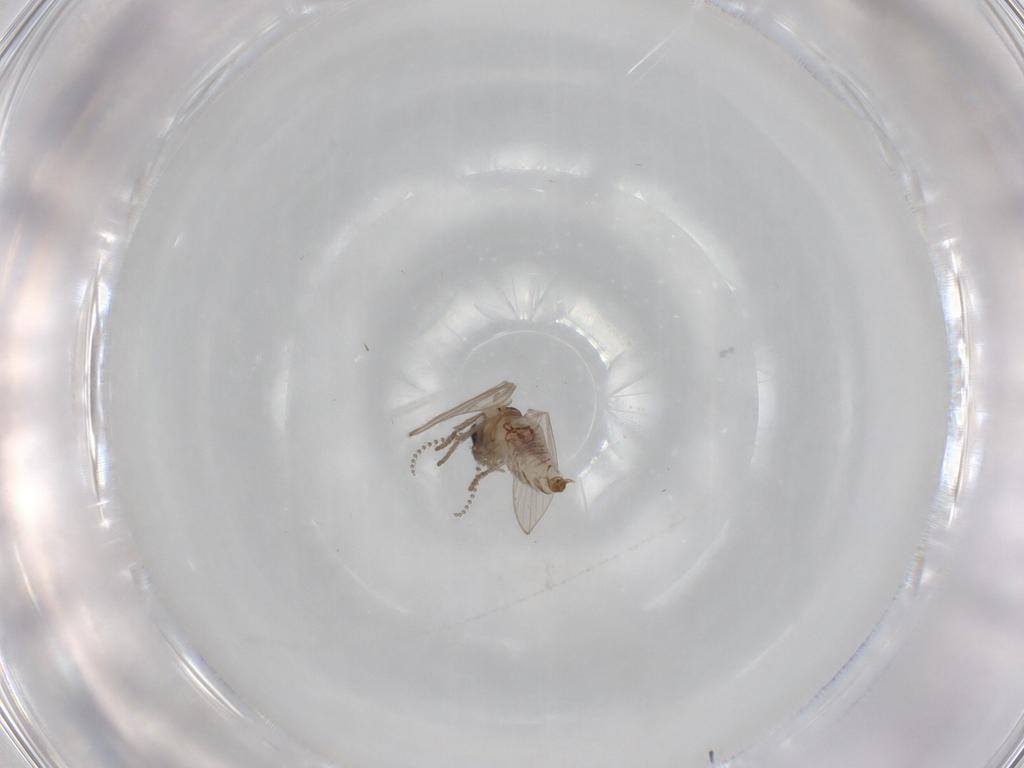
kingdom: Animalia
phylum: Arthropoda
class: Insecta
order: Diptera
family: Psychodidae
